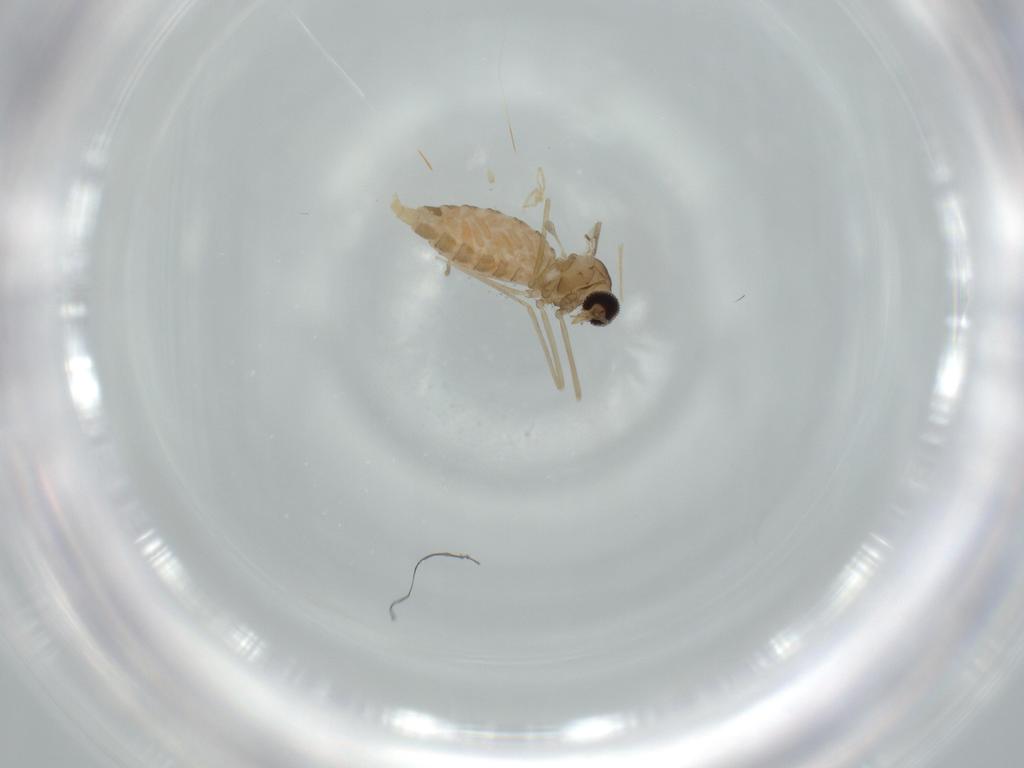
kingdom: Animalia
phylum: Arthropoda
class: Insecta
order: Diptera
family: Cecidomyiidae
